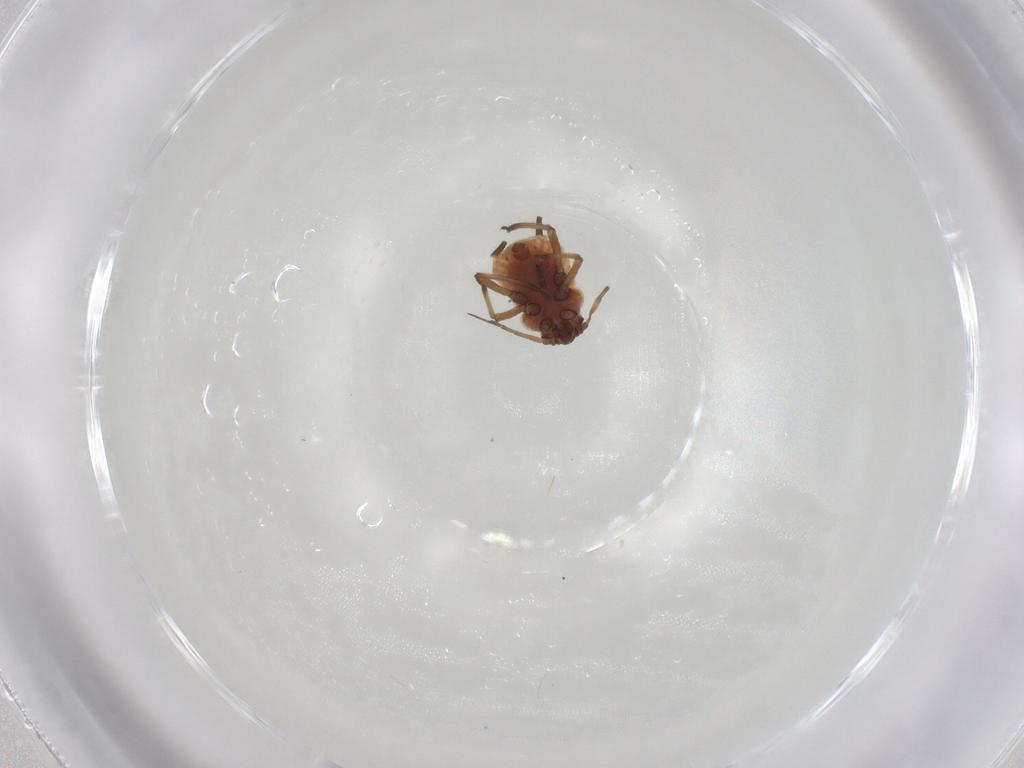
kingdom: Animalia
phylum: Arthropoda
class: Insecta
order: Hemiptera
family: Aphididae
